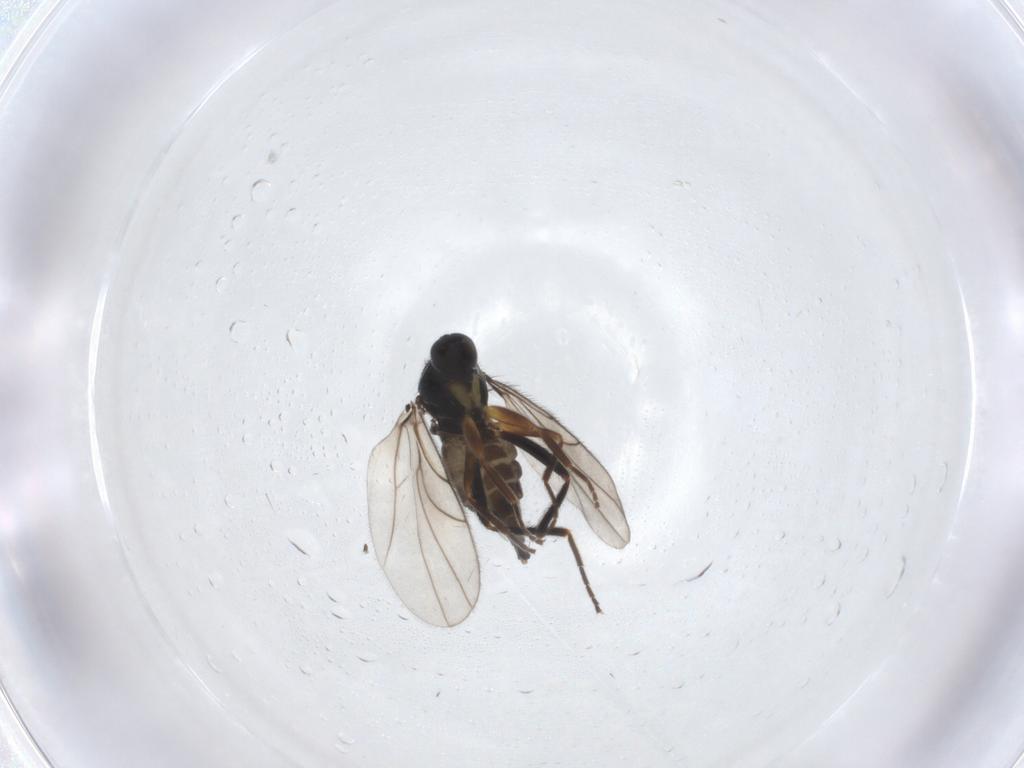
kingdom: Animalia
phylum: Arthropoda
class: Insecta
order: Diptera
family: Hybotidae
